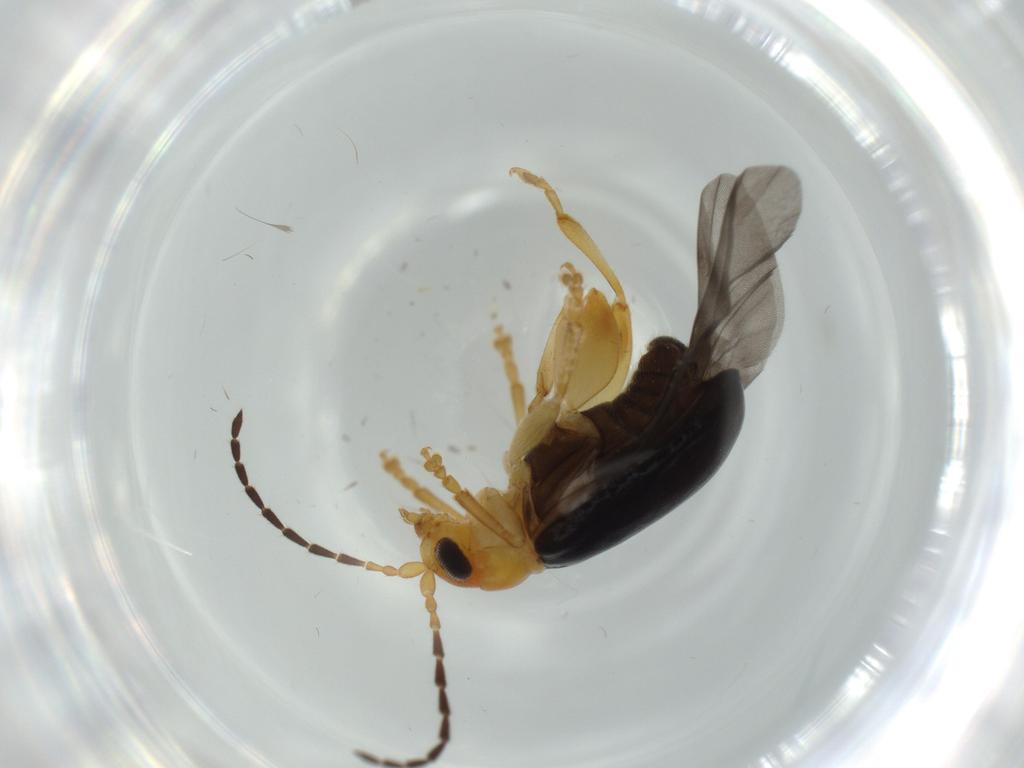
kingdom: Animalia
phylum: Arthropoda
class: Insecta
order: Coleoptera
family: Chrysomelidae
